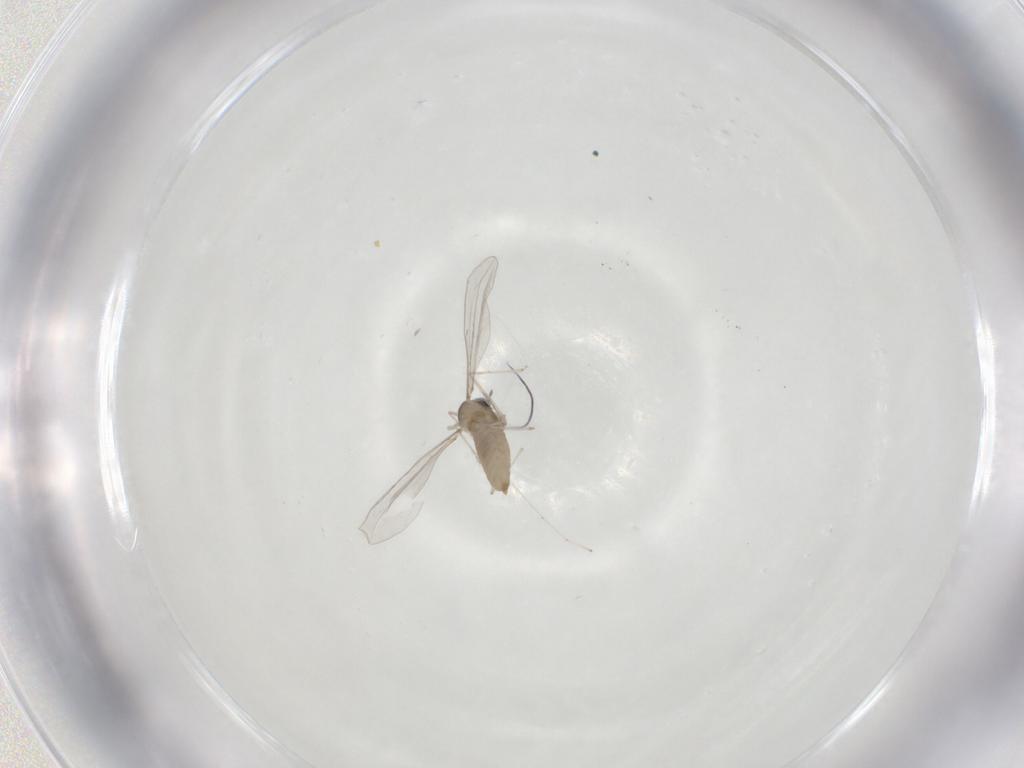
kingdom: Animalia
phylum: Arthropoda
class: Insecta
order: Diptera
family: Cecidomyiidae
